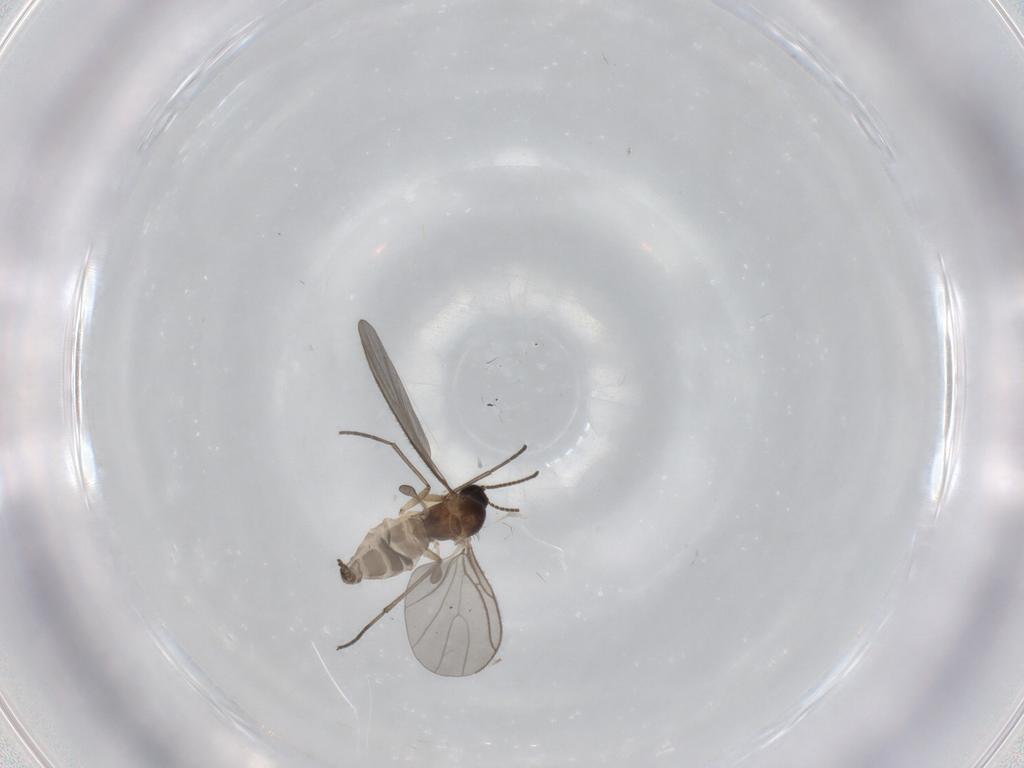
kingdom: Animalia
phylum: Arthropoda
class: Insecta
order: Diptera
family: Sciaridae
